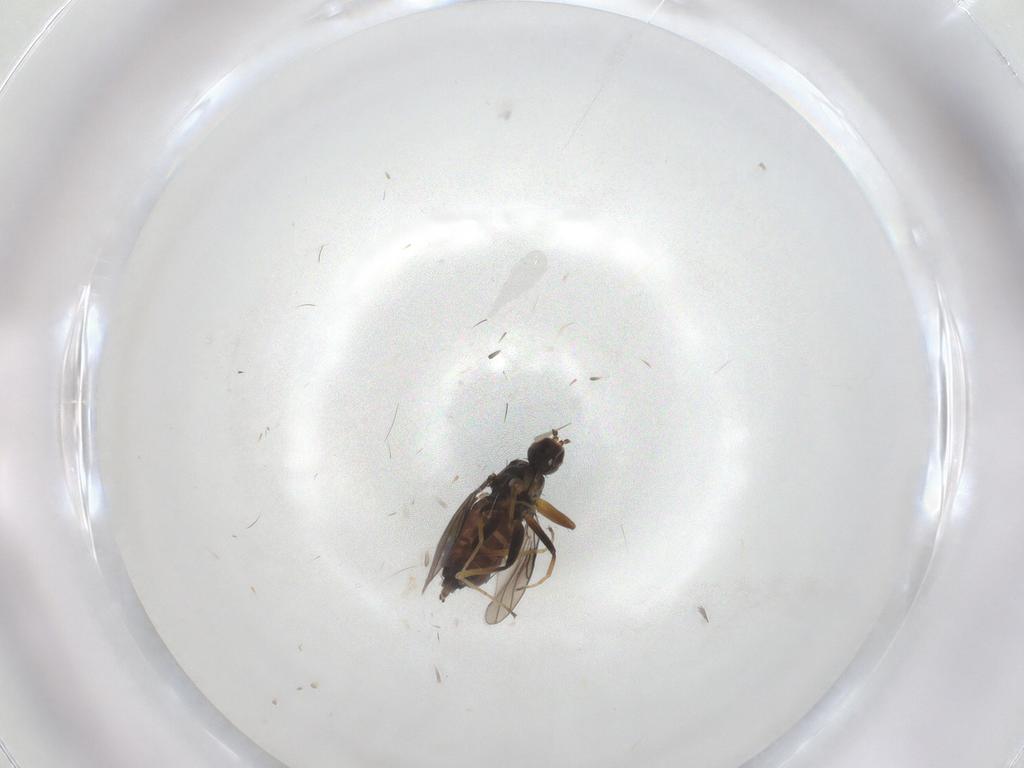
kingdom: Animalia
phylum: Arthropoda
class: Insecta
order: Diptera
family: Hybotidae
